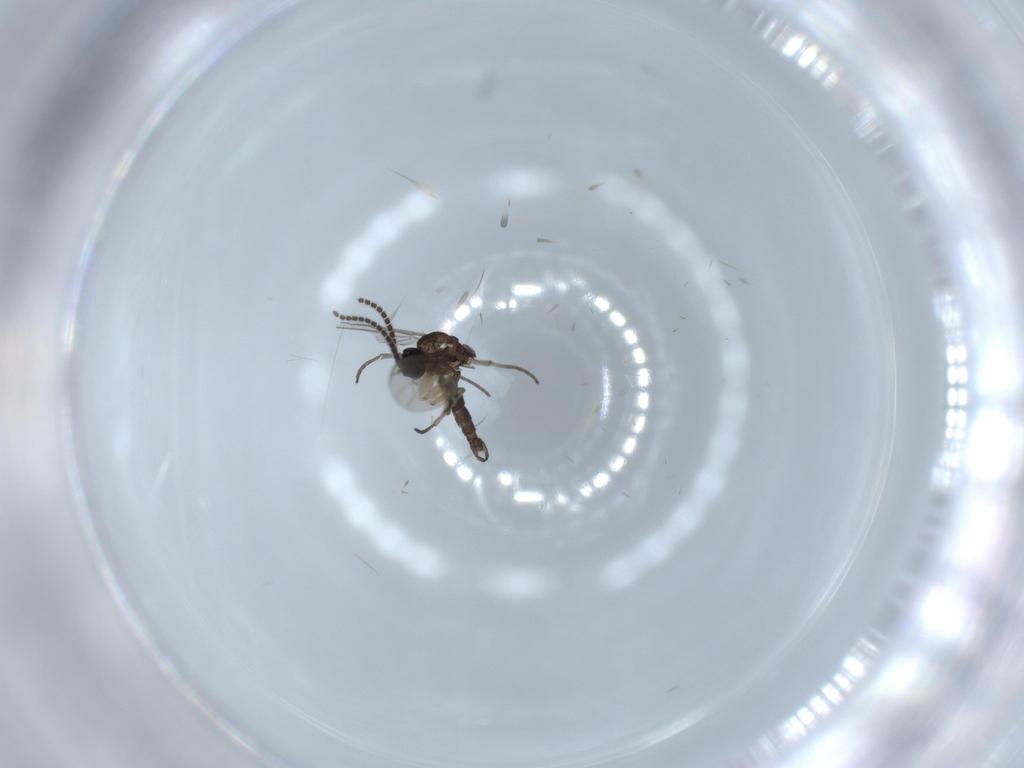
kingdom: Animalia
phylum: Arthropoda
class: Insecta
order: Diptera
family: Sciaridae
